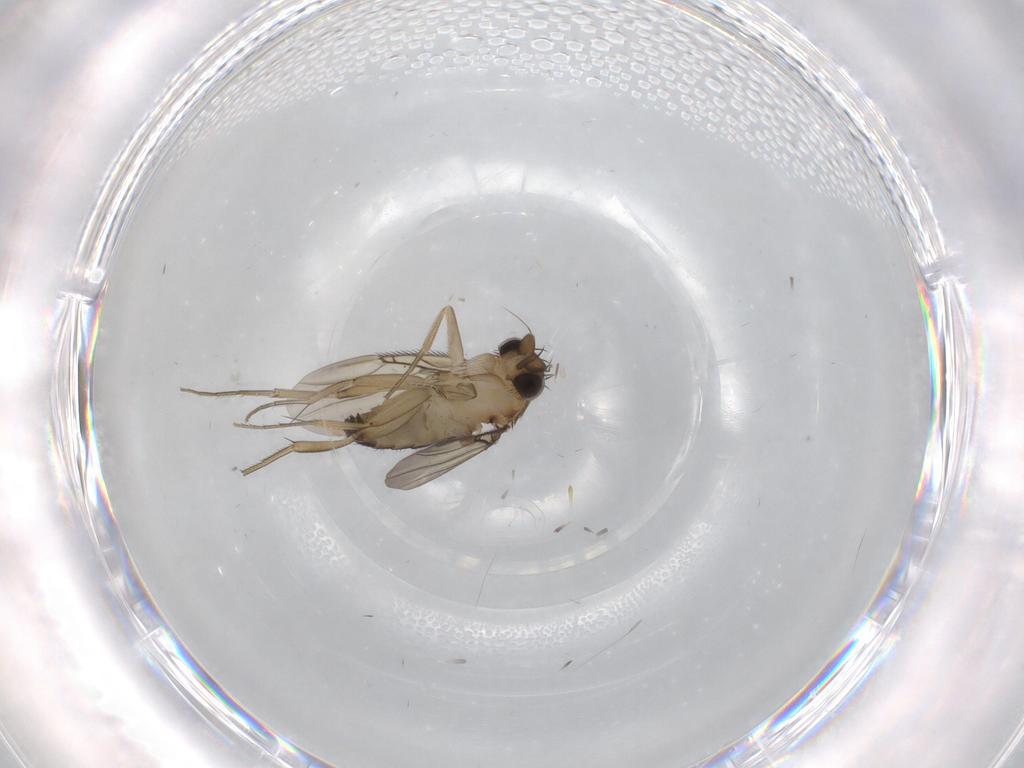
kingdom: Animalia
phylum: Arthropoda
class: Insecta
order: Diptera
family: Phoridae
